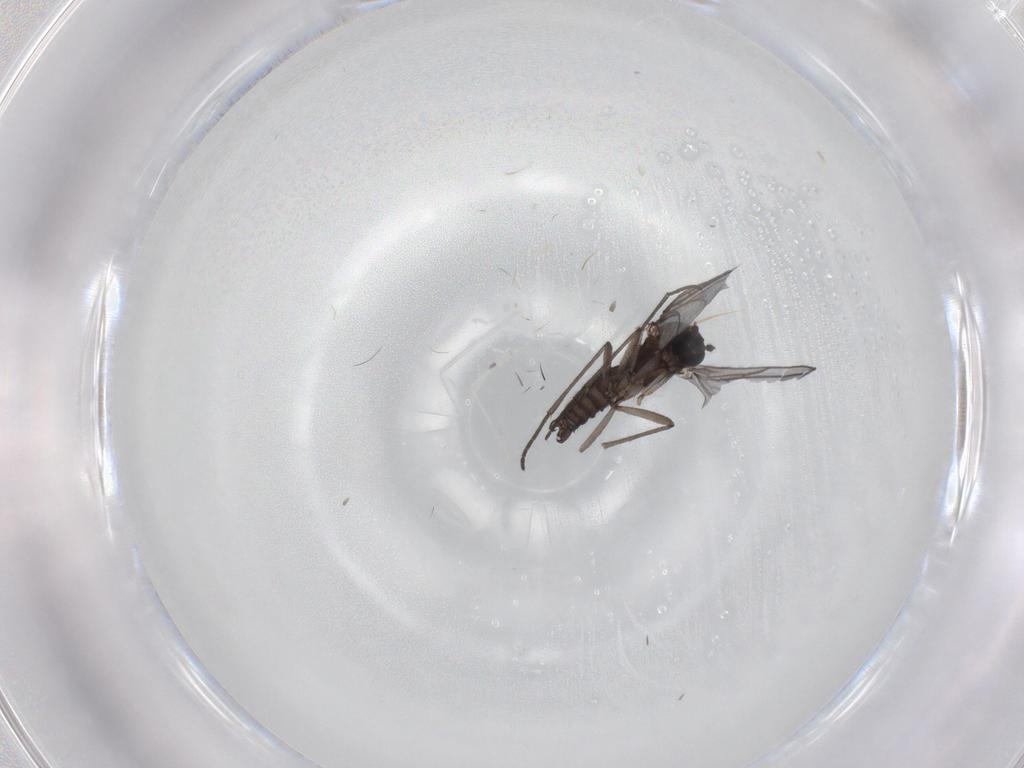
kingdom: Animalia
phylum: Arthropoda
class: Insecta
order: Diptera
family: Cecidomyiidae
